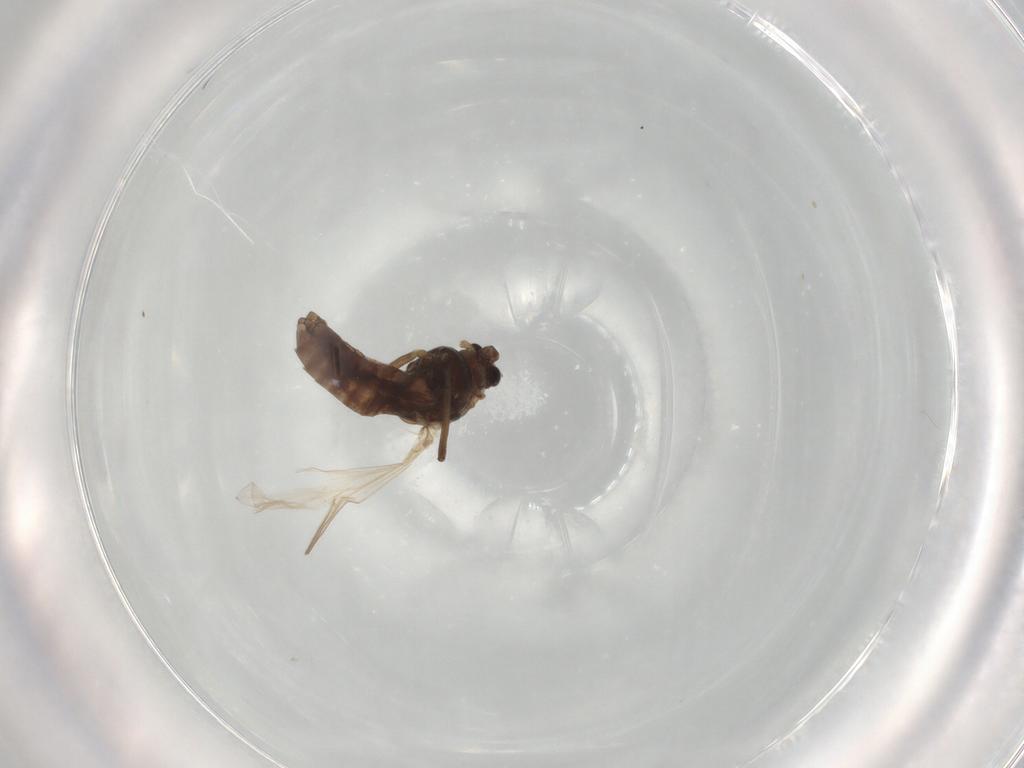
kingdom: Animalia
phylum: Arthropoda
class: Insecta
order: Diptera
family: Chironomidae
